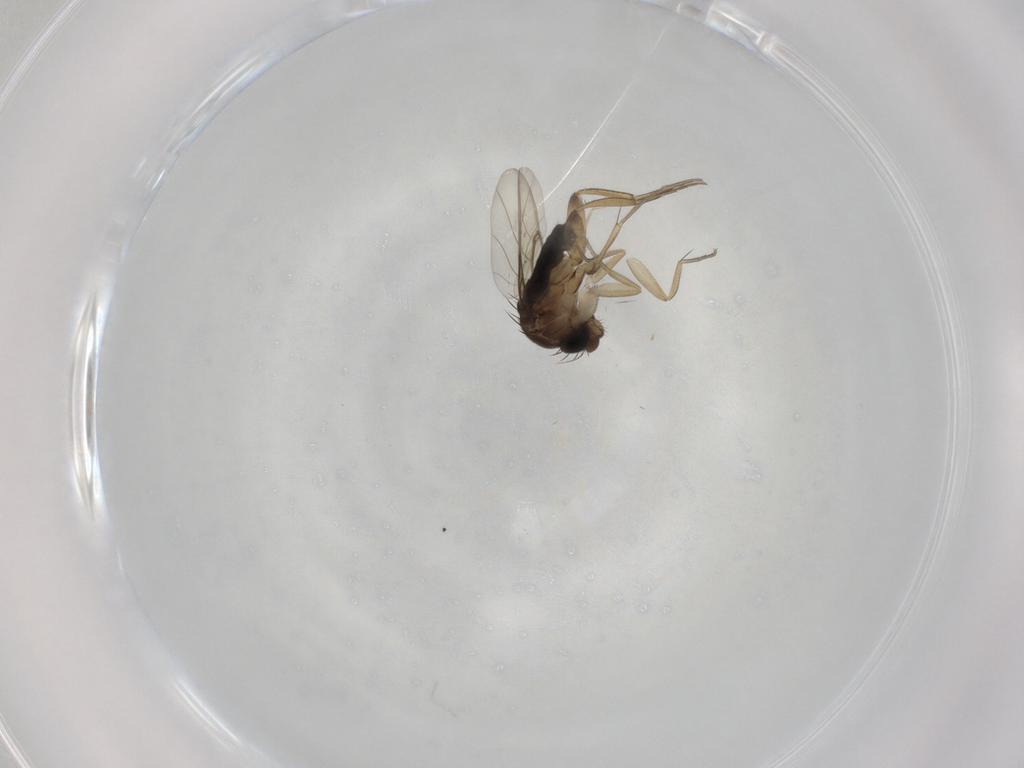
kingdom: Animalia
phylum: Arthropoda
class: Insecta
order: Diptera
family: Phoridae
